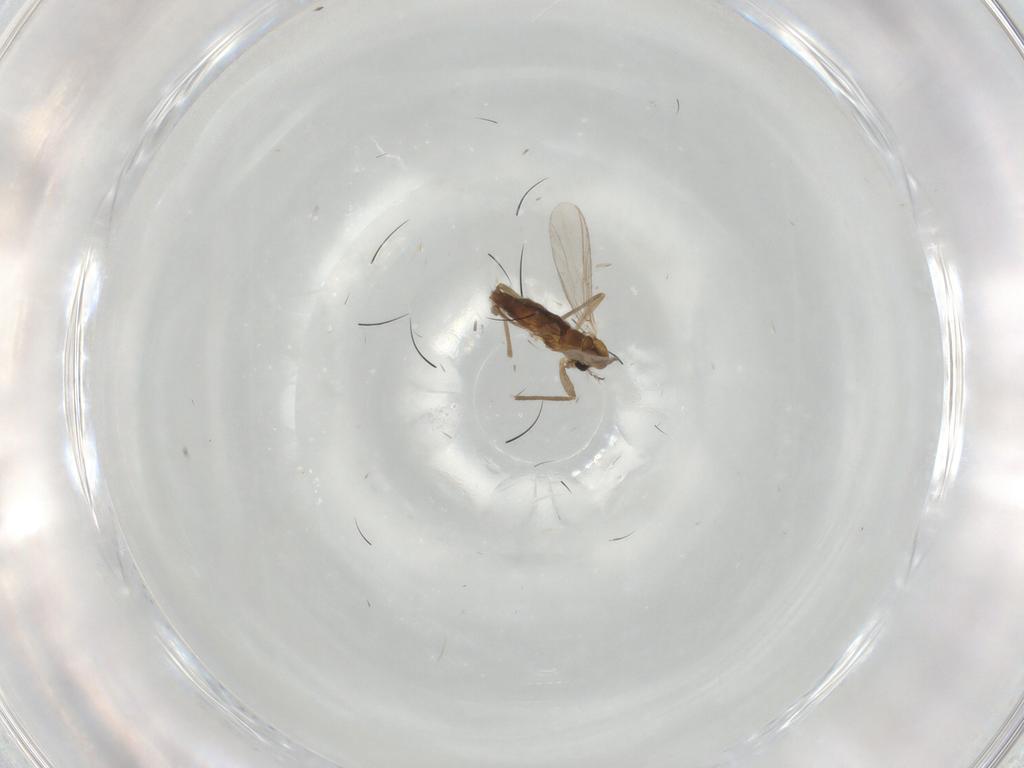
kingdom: Animalia
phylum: Arthropoda
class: Insecta
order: Diptera
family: Chironomidae
